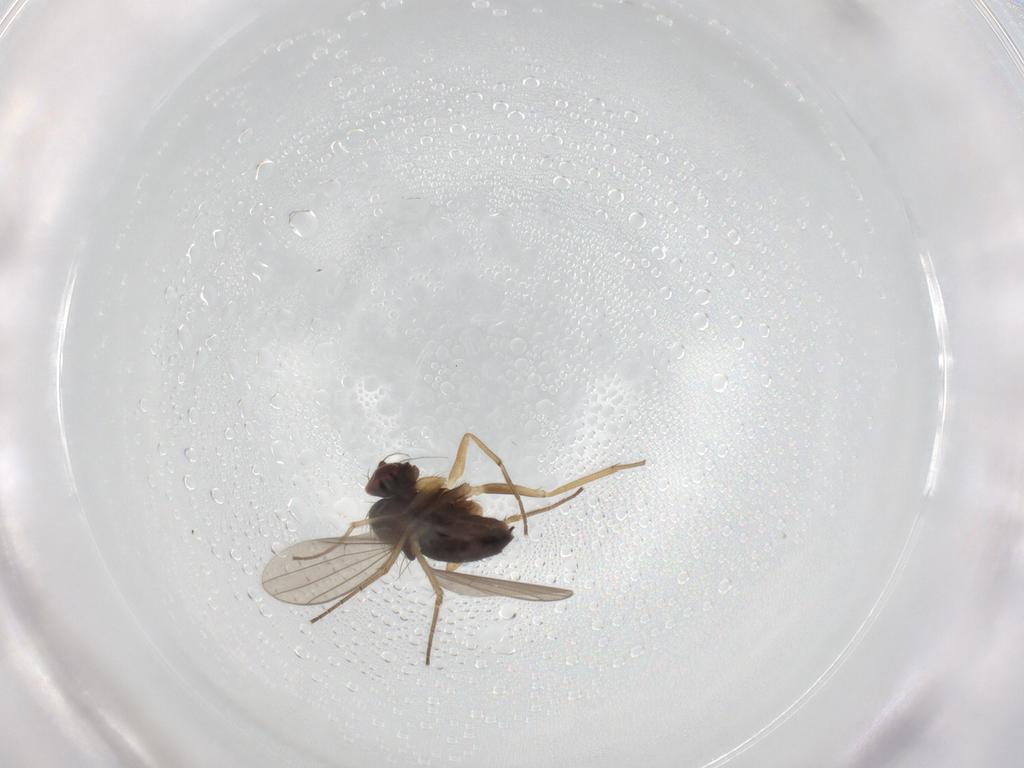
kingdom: Animalia
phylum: Arthropoda
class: Insecta
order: Diptera
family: Dolichopodidae
